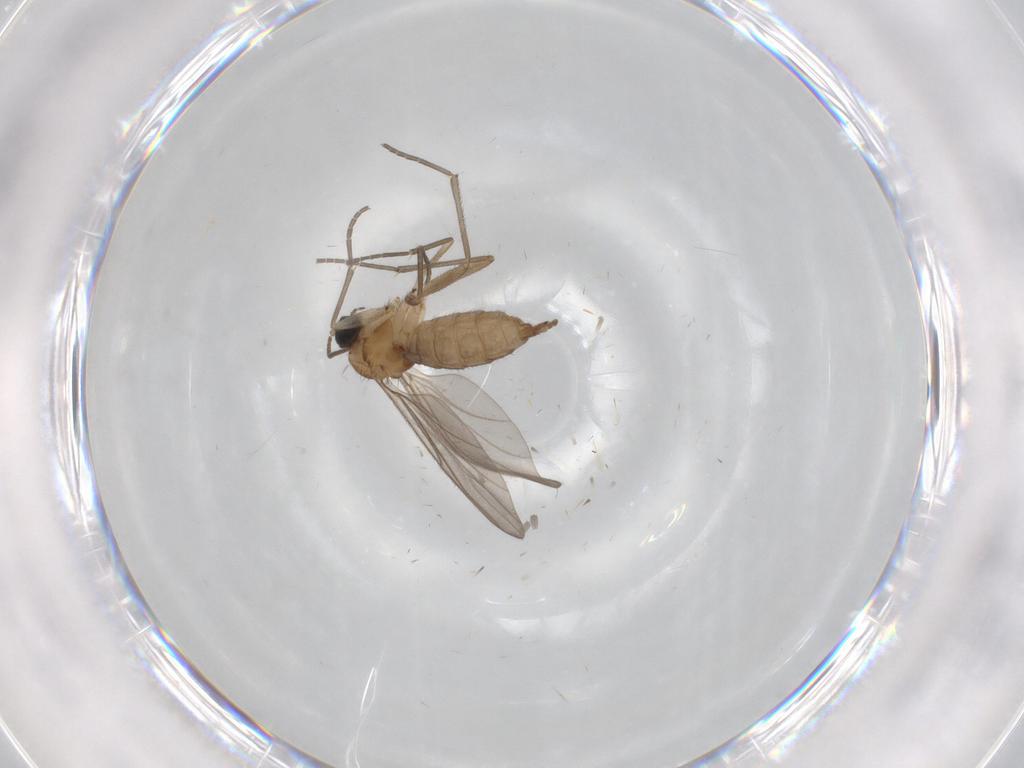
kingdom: Animalia
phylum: Arthropoda
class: Insecta
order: Diptera
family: Sciaridae
